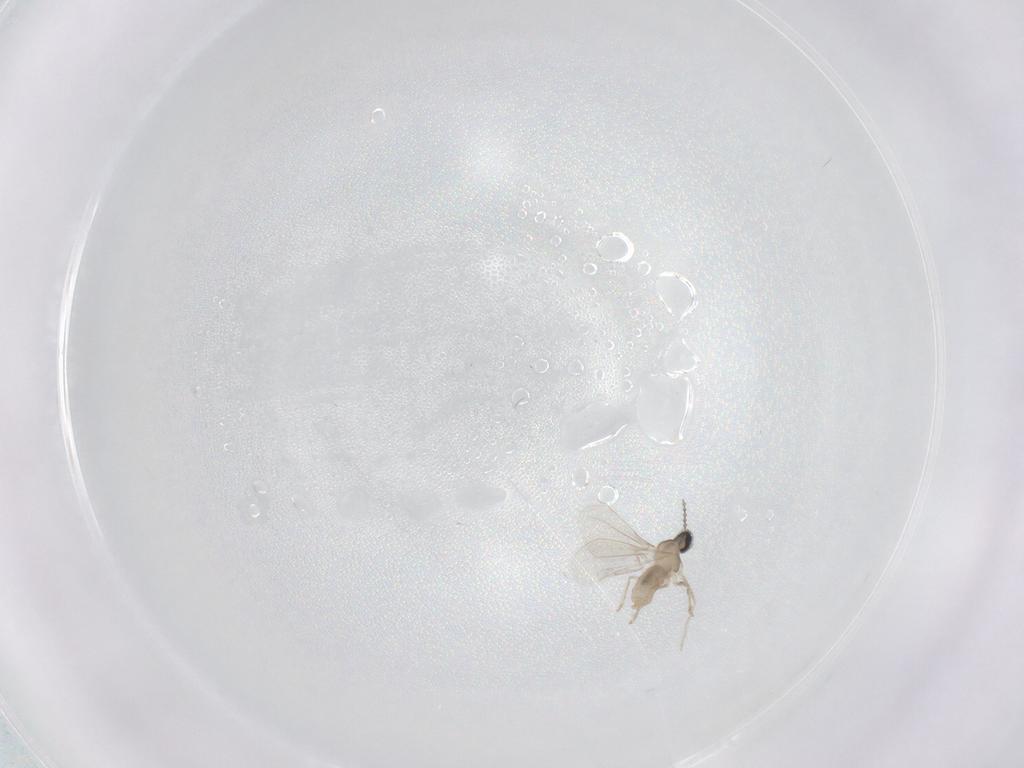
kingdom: Animalia
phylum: Arthropoda
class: Insecta
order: Diptera
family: Cecidomyiidae
